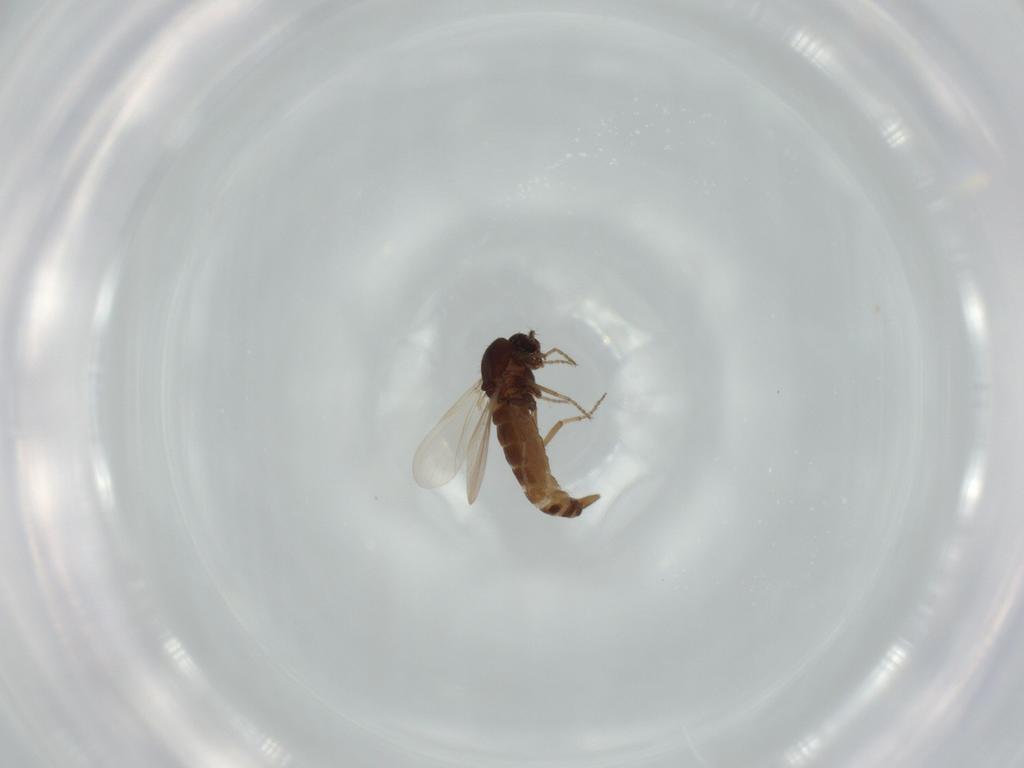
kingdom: Animalia
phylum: Arthropoda
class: Insecta
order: Diptera
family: Ceratopogonidae
